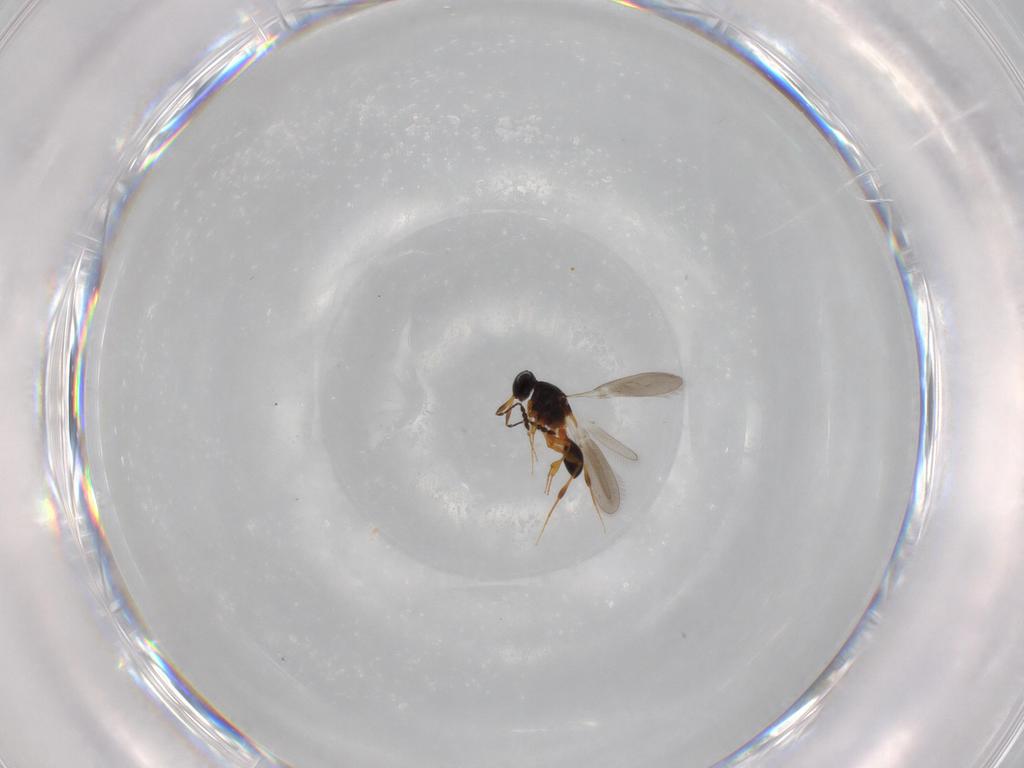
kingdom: Animalia
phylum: Arthropoda
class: Insecta
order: Hymenoptera
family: Platygastridae
